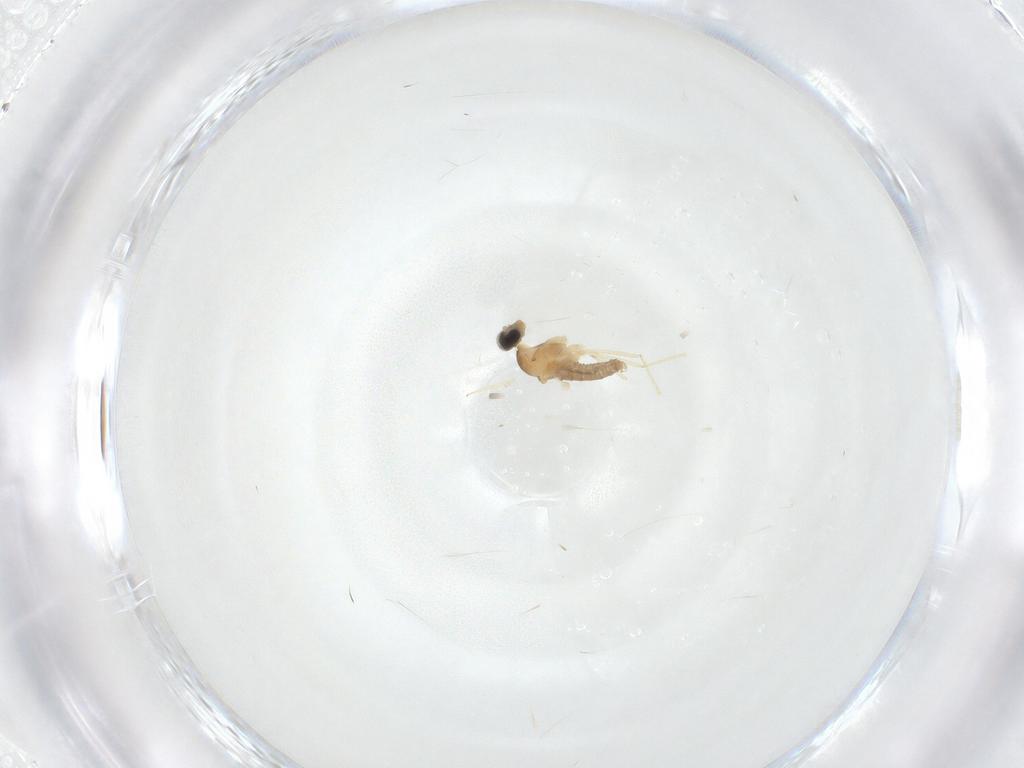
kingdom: Animalia
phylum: Arthropoda
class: Insecta
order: Diptera
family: Cecidomyiidae
